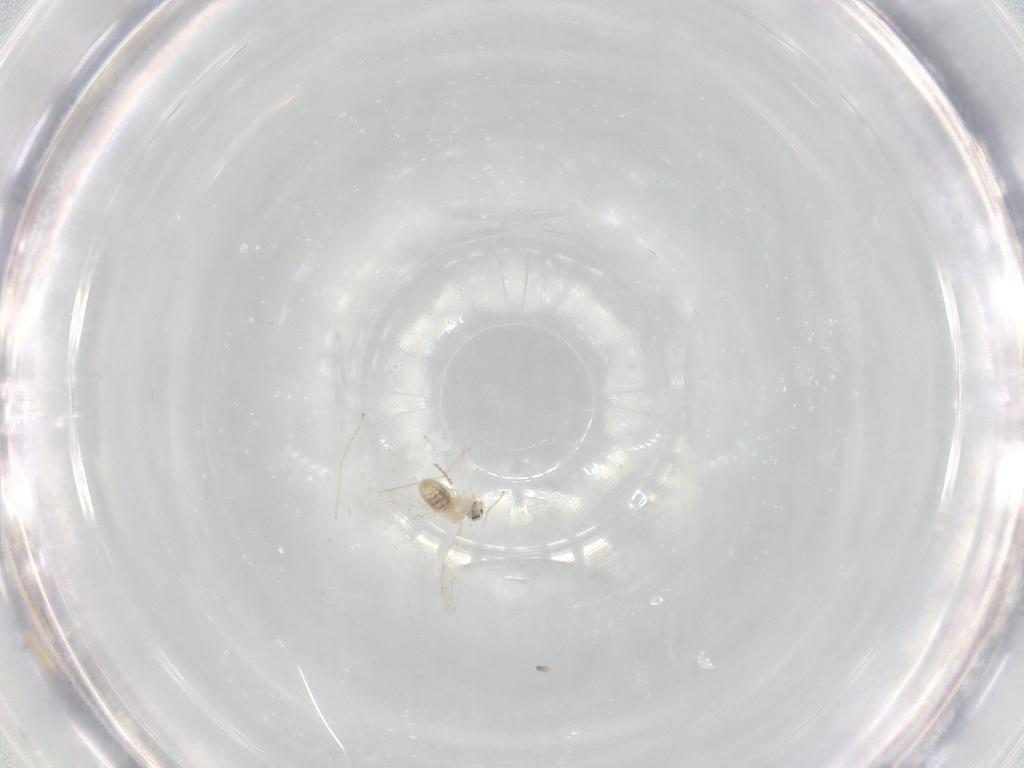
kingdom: Animalia
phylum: Arthropoda
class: Insecta
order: Diptera
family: Cecidomyiidae
